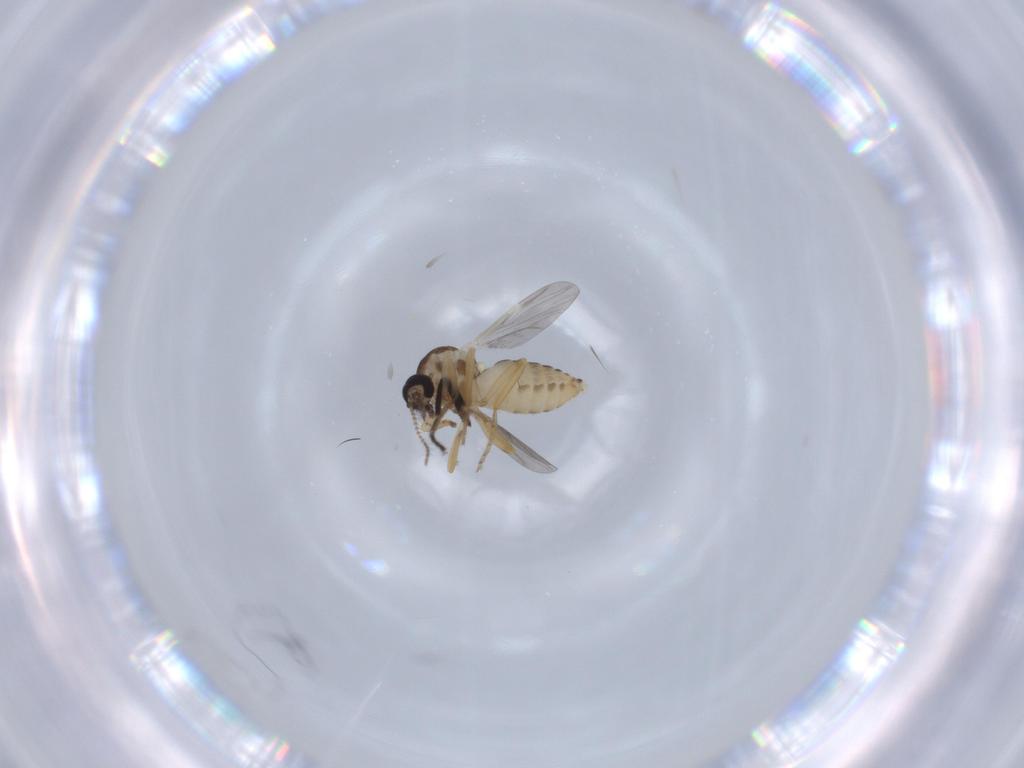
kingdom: Animalia
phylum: Arthropoda
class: Insecta
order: Diptera
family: Ceratopogonidae
